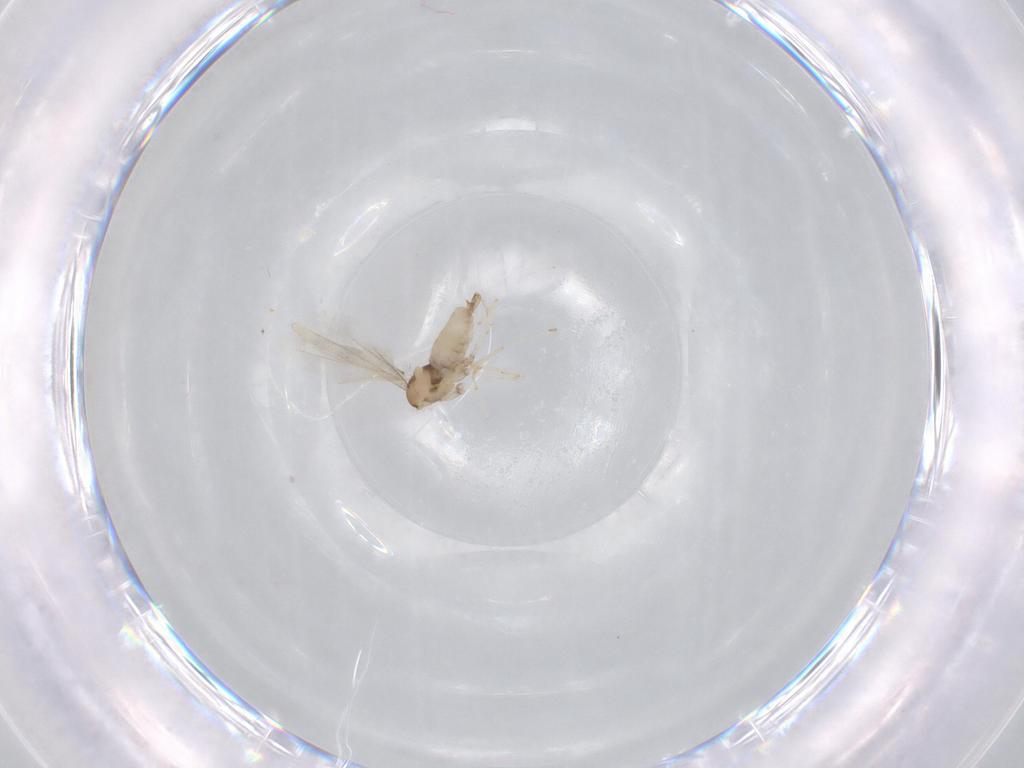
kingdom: Animalia
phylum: Arthropoda
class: Insecta
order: Diptera
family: Cecidomyiidae
